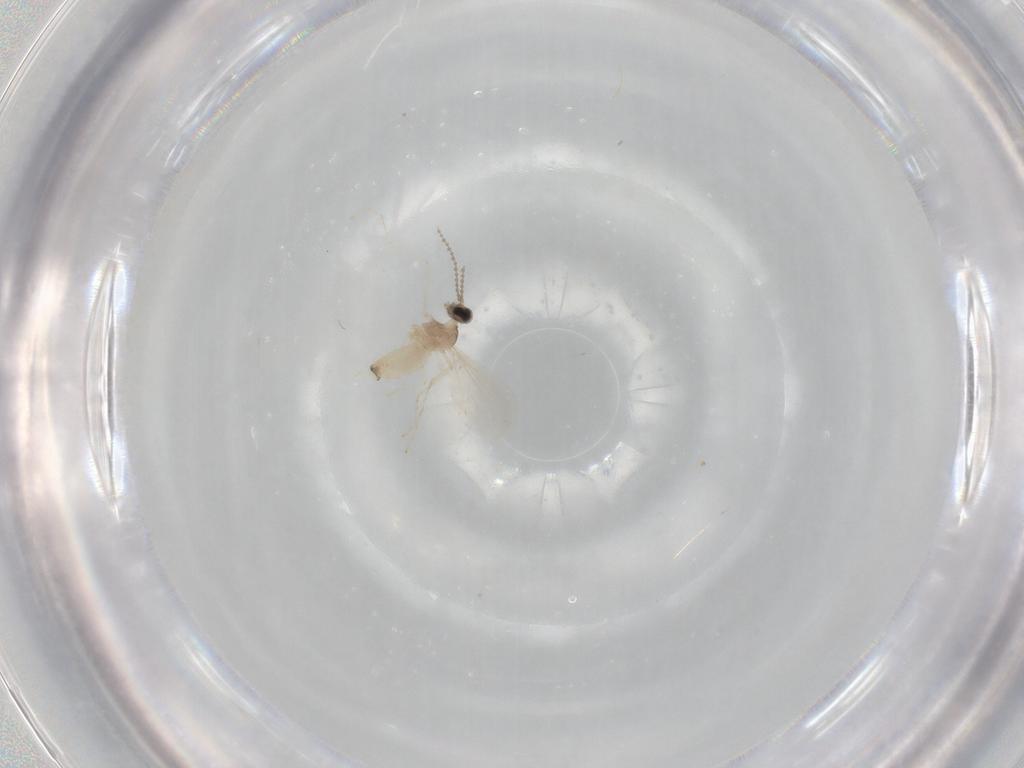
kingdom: Animalia
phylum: Arthropoda
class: Insecta
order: Diptera
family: Cecidomyiidae
